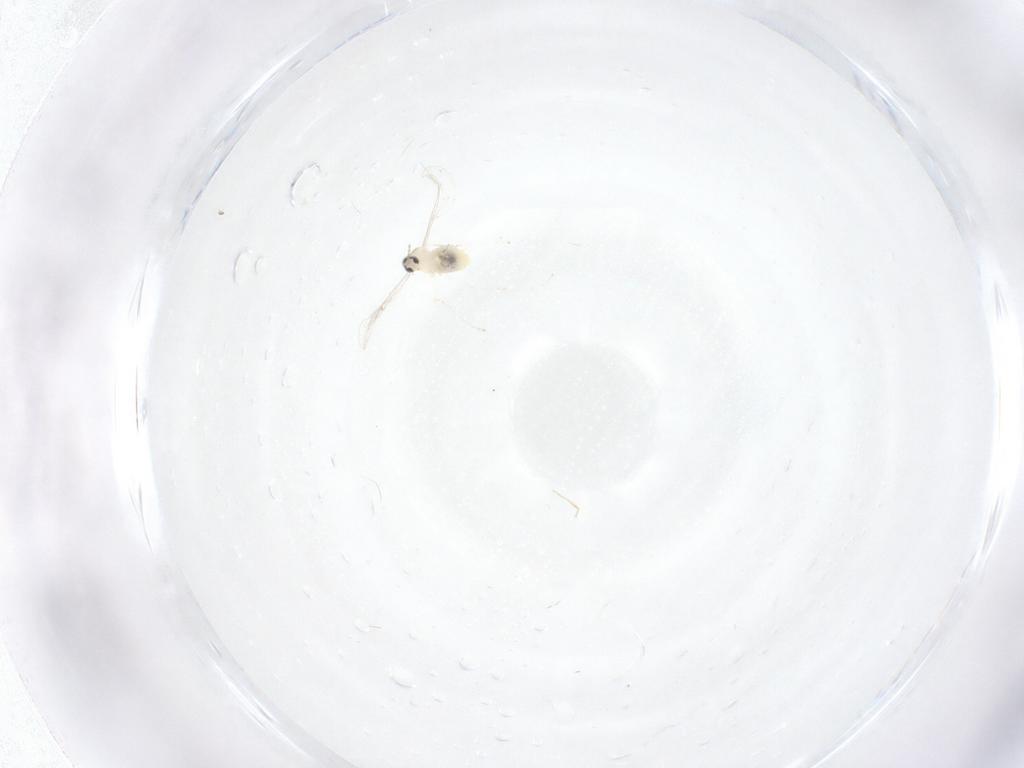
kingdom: Animalia
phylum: Arthropoda
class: Insecta
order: Diptera
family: Cecidomyiidae
